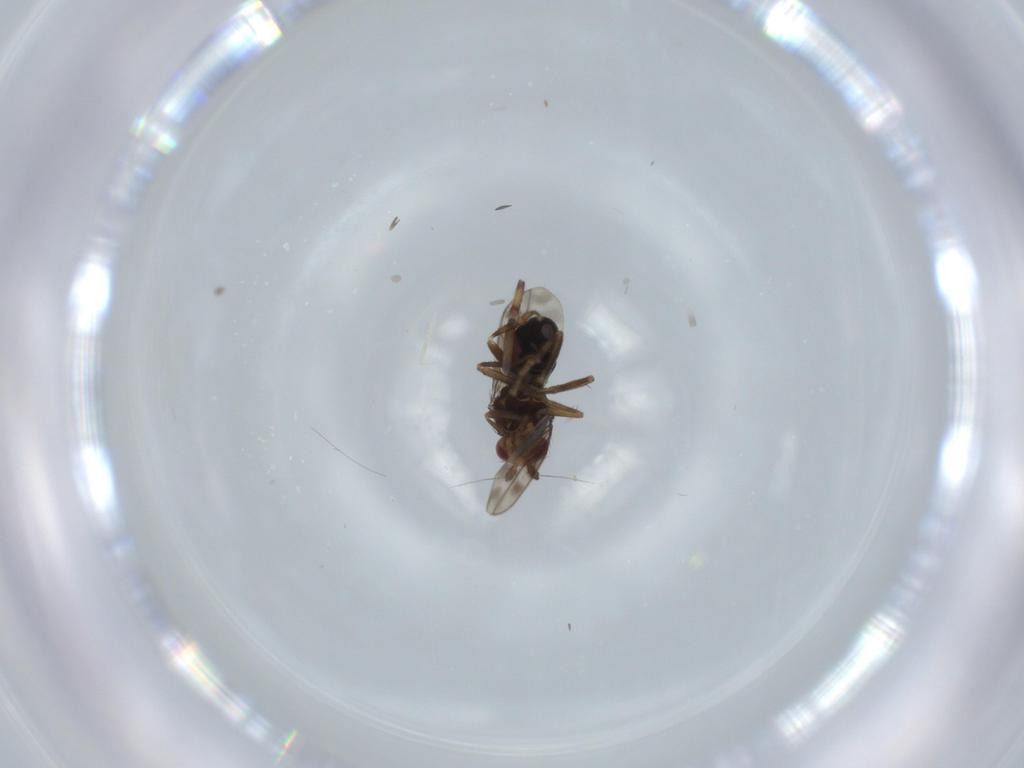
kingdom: Animalia
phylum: Arthropoda
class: Insecta
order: Diptera
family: Sphaeroceridae
